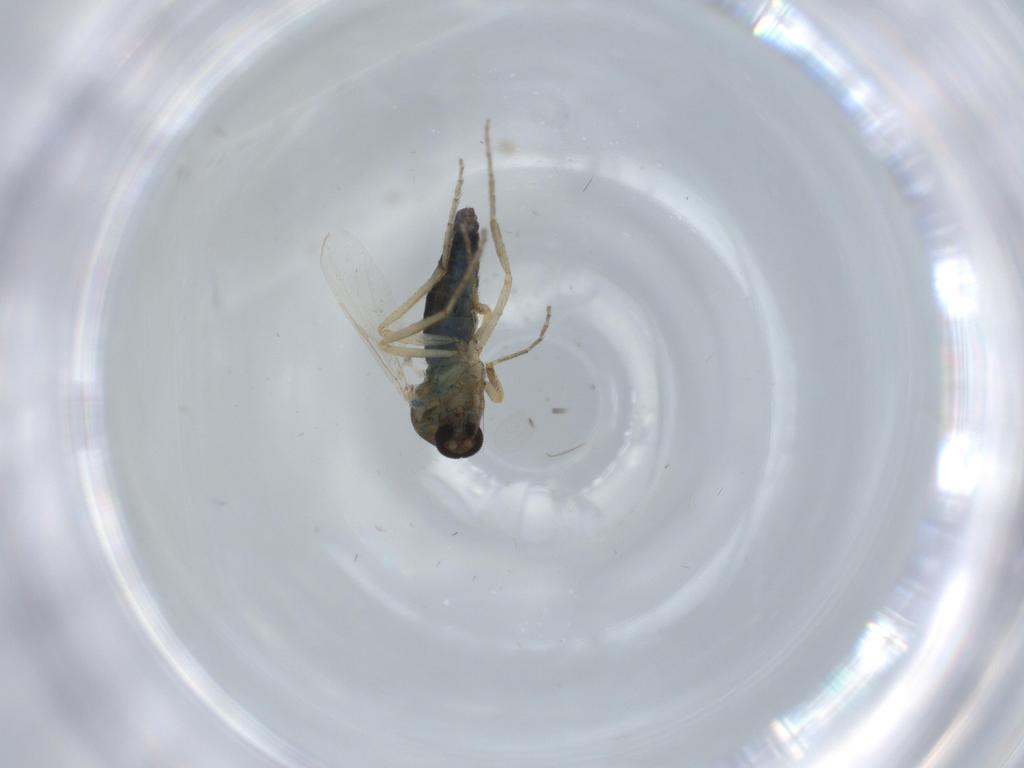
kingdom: Animalia
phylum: Arthropoda
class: Insecta
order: Diptera
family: Ceratopogonidae
